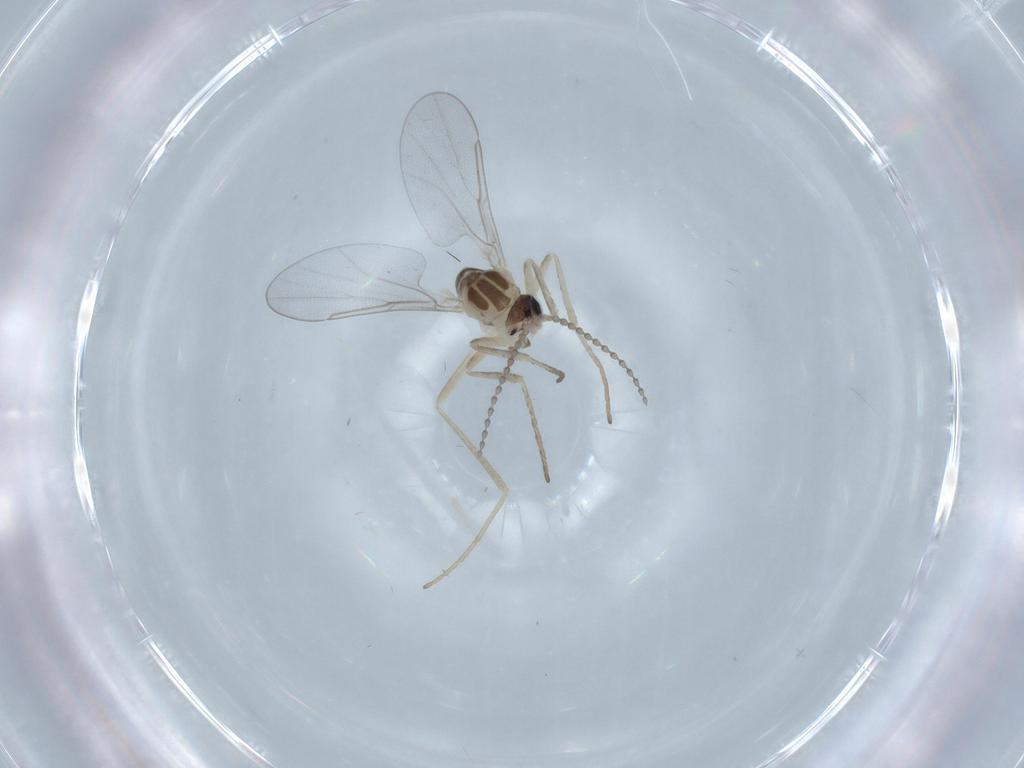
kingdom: Animalia
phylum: Arthropoda
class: Insecta
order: Diptera
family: Cecidomyiidae
